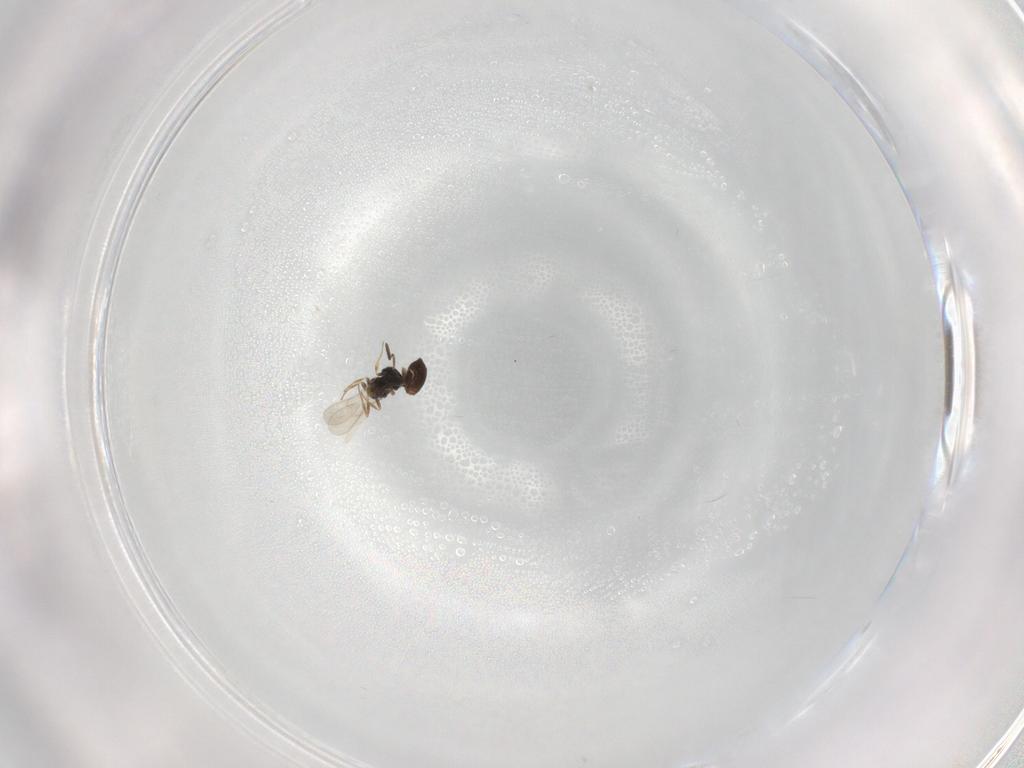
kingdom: Animalia
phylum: Arthropoda
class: Insecta
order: Hymenoptera
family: Scelionidae
